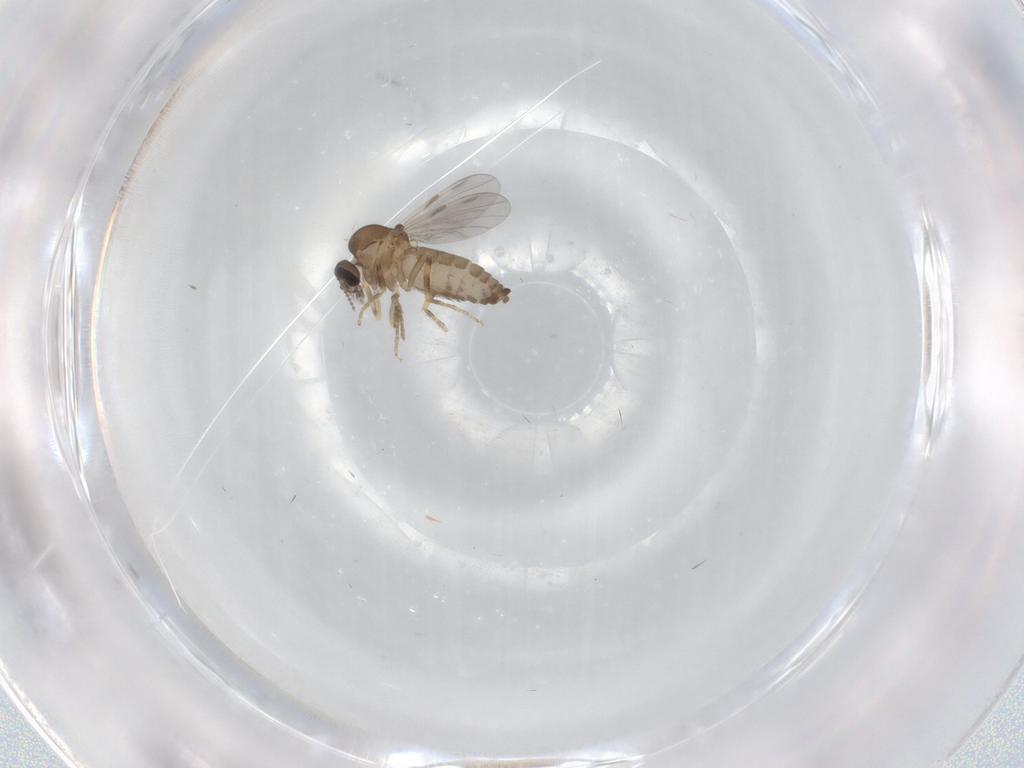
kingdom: Animalia
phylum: Arthropoda
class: Insecta
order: Diptera
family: Ceratopogonidae
